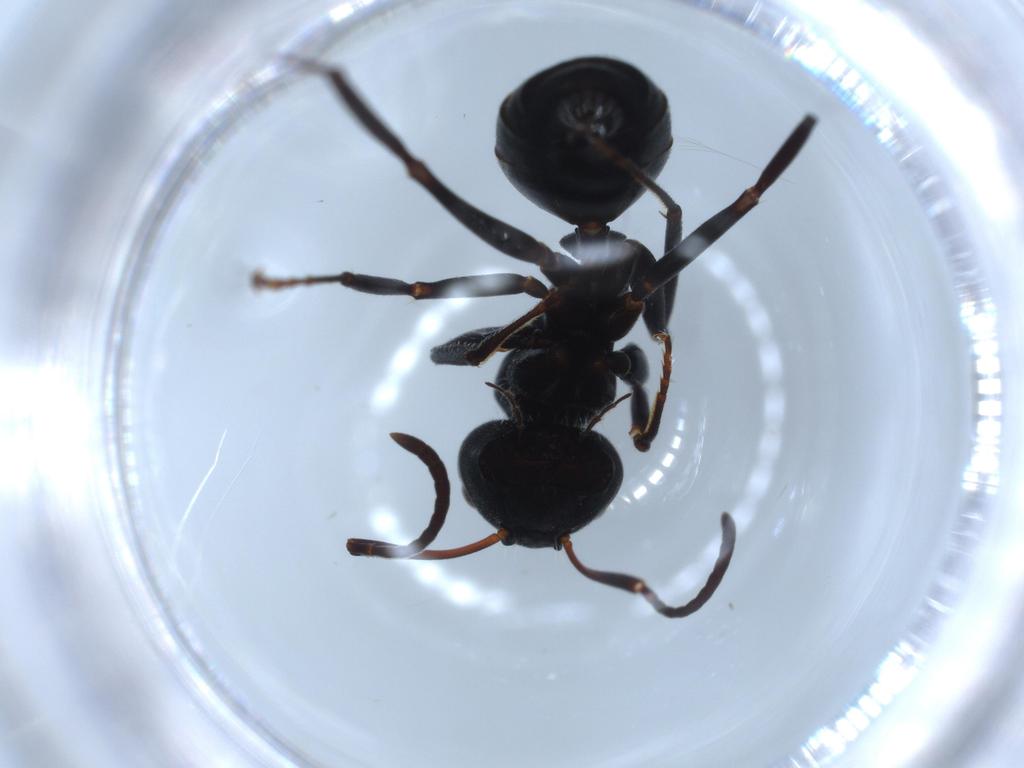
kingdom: Animalia
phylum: Arthropoda
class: Insecta
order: Hymenoptera
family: Formicidae
